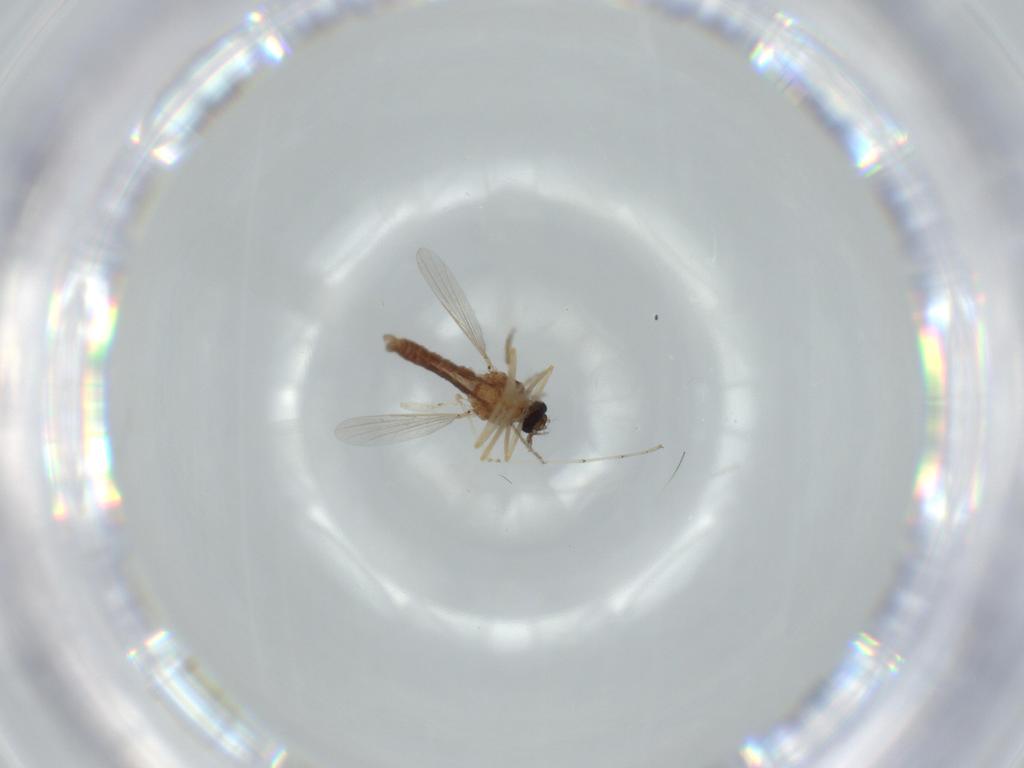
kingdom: Animalia
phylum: Arthropoda
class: Insecta
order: Diptera
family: Ceratopogonidae
